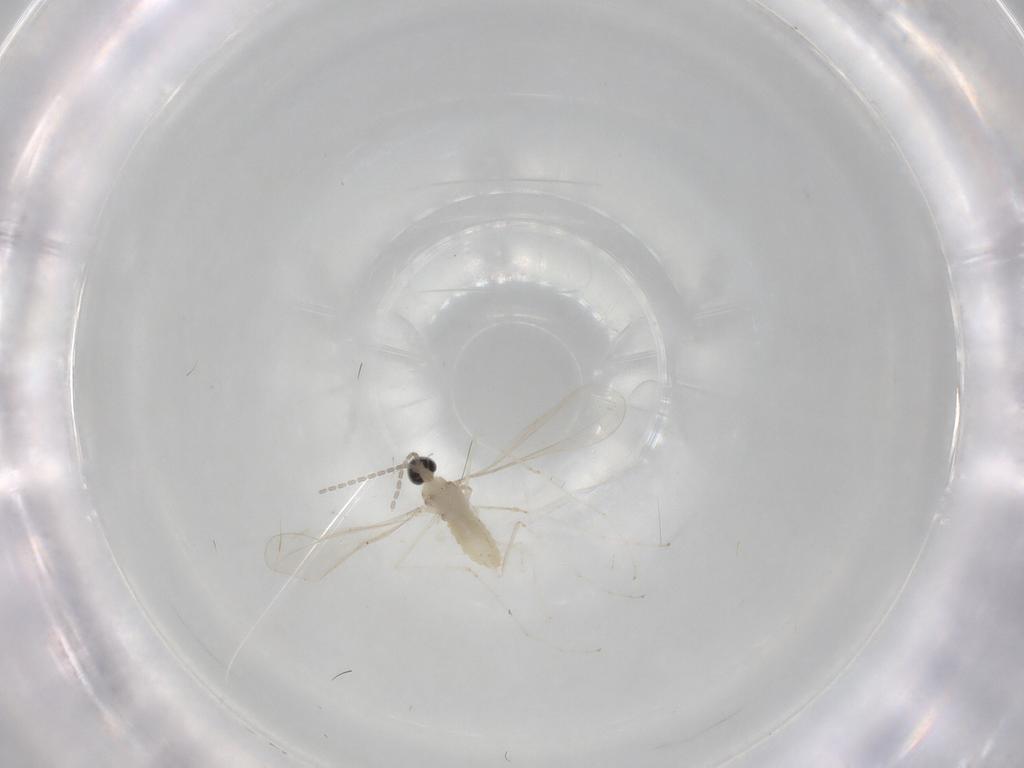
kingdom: Animalia
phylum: Arthropoda
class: Insecta
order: Diptera
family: Cecidomyiidae
